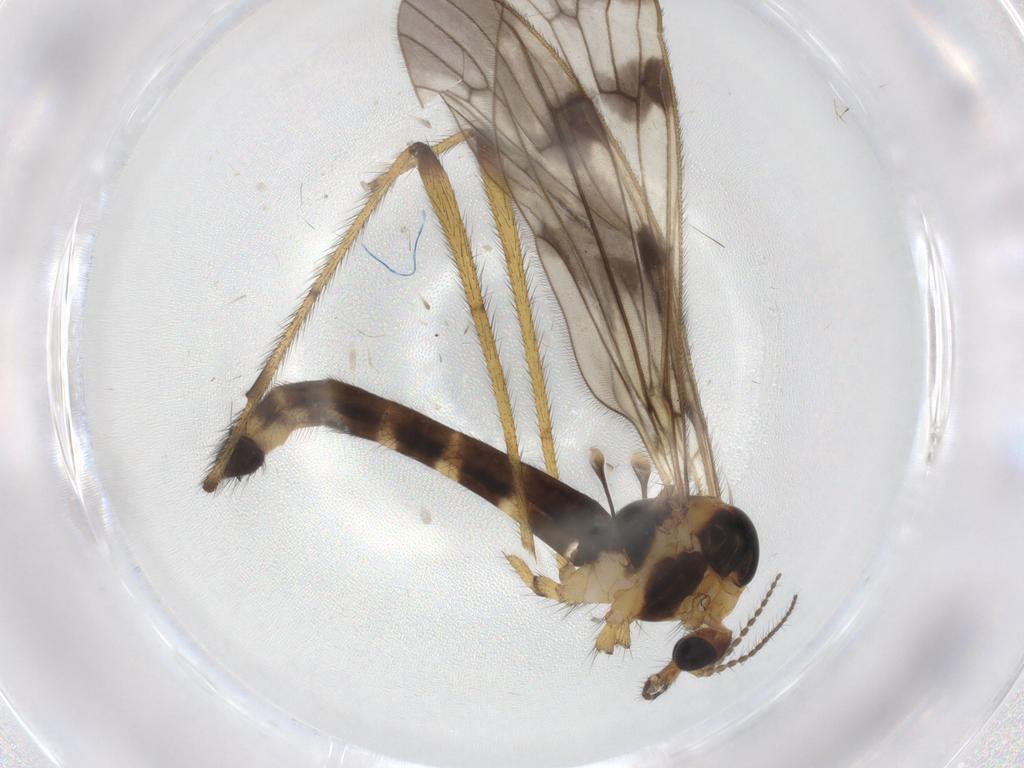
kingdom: Animalia
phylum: Arthropoda
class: Insecta
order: Diptera
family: Limoniidae
